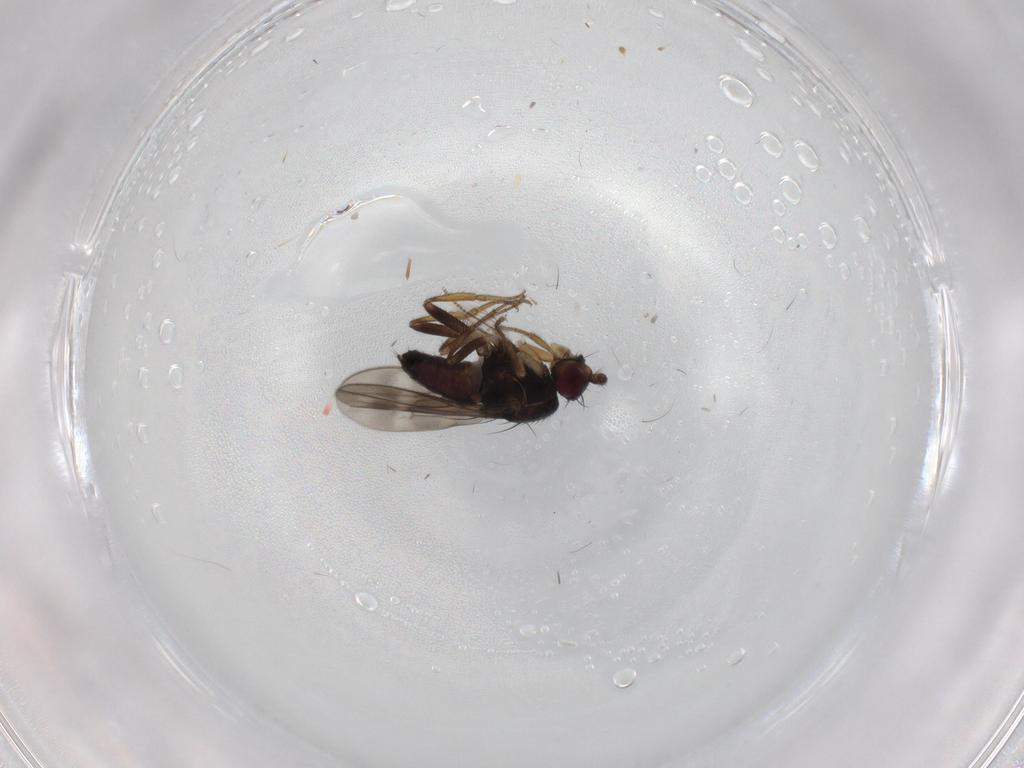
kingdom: Animalia
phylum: Arthropoda
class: Insecta
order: Diptera
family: Sphaeroceridae
